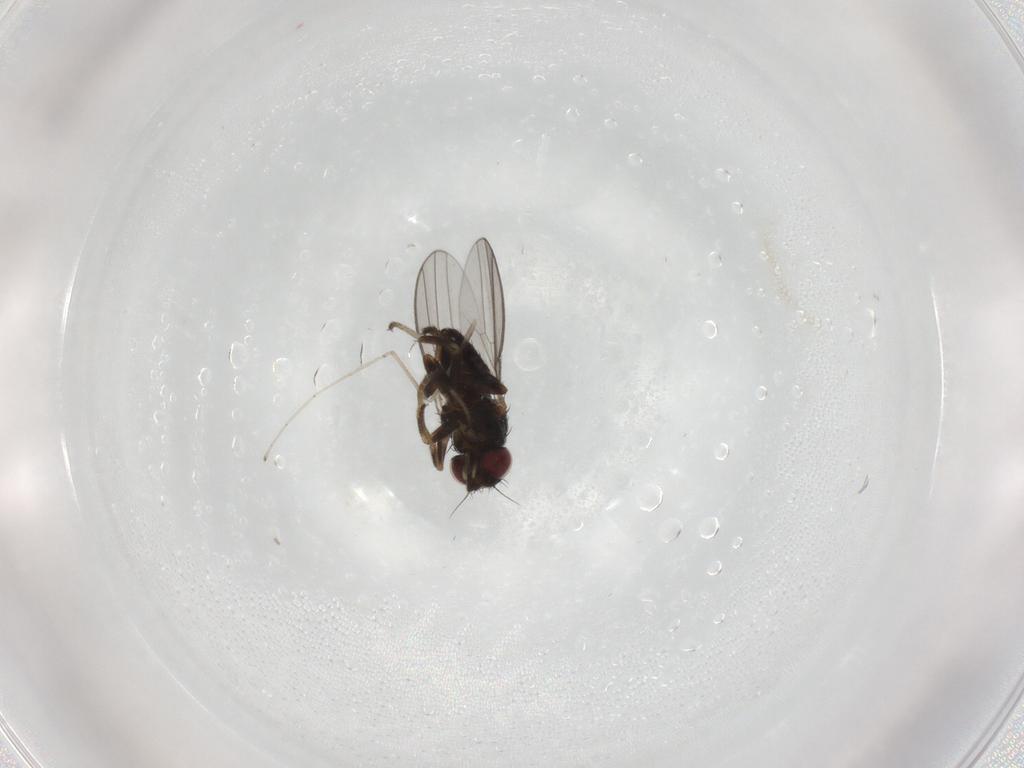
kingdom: Animalia
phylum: Arthropoda
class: Insecta
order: Diptera
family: Milichiidae
